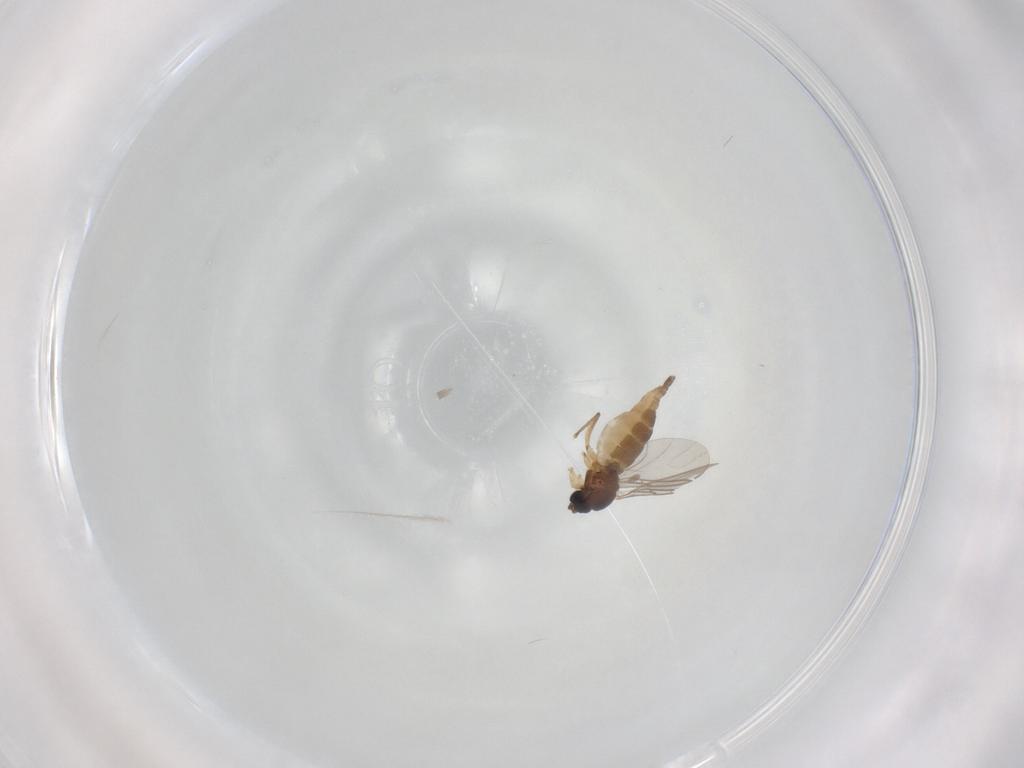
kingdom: Animalia
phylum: Arthropoda
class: Insecta
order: Diptera
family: Sciaridae
